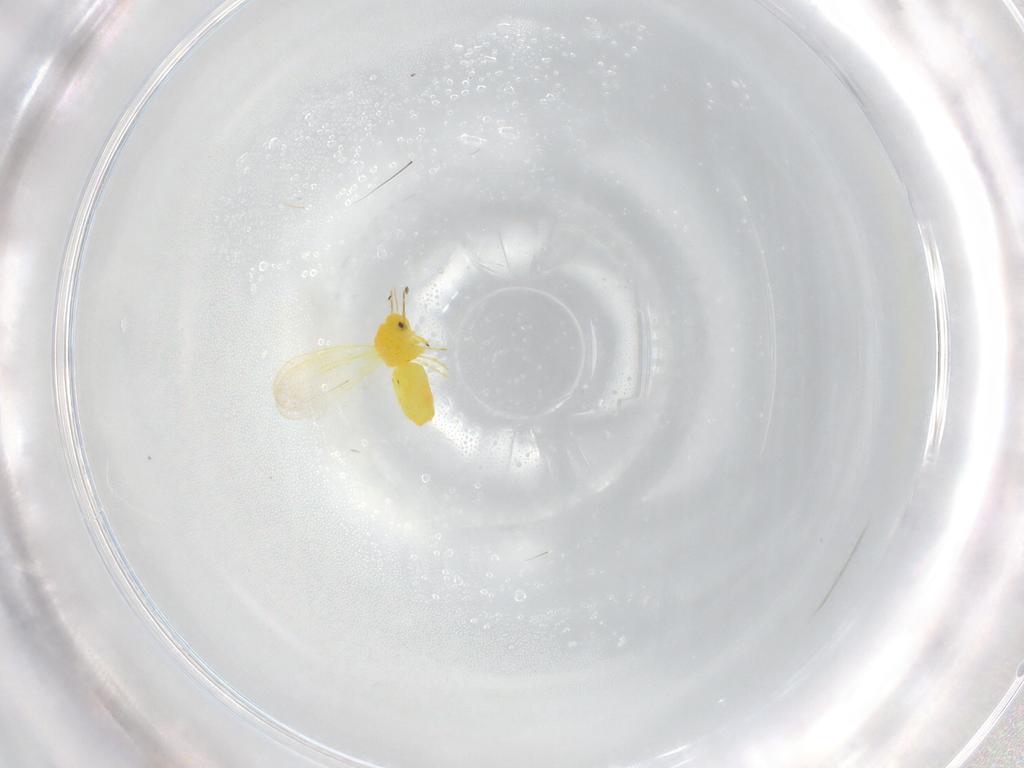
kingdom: Animalia
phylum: Arthropoda
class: Insecta
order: Hemiptera
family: Aleyrodidae
